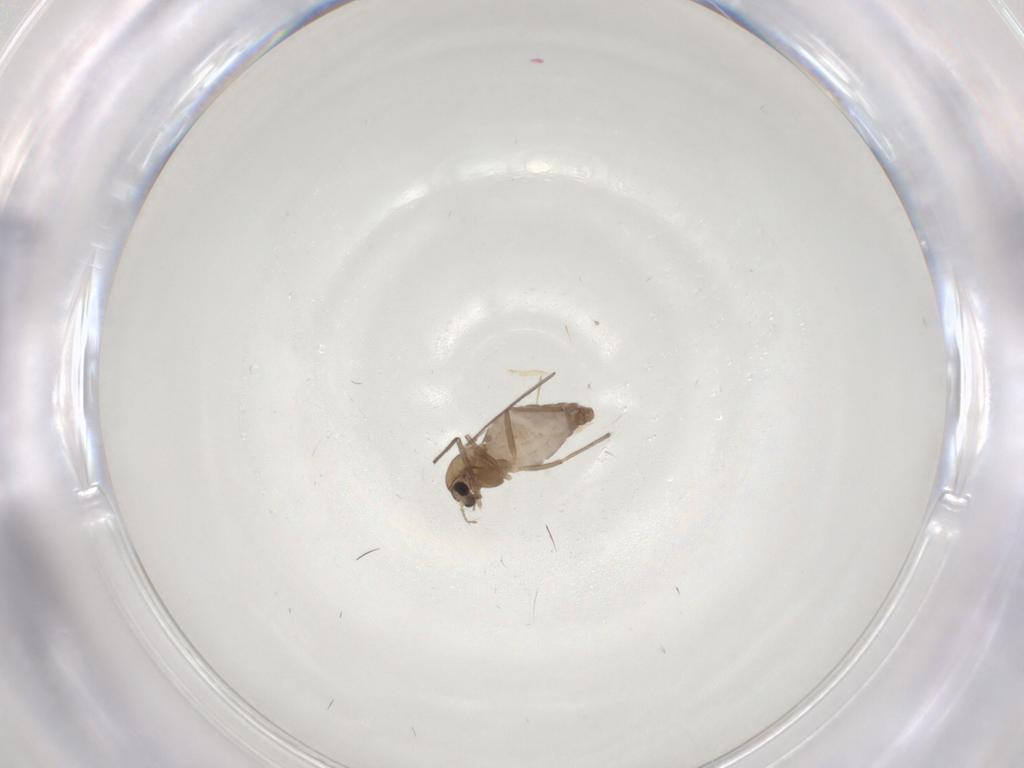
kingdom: Animalia
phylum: Arthropoda
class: Insecta
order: Diptera
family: Chironomidae
